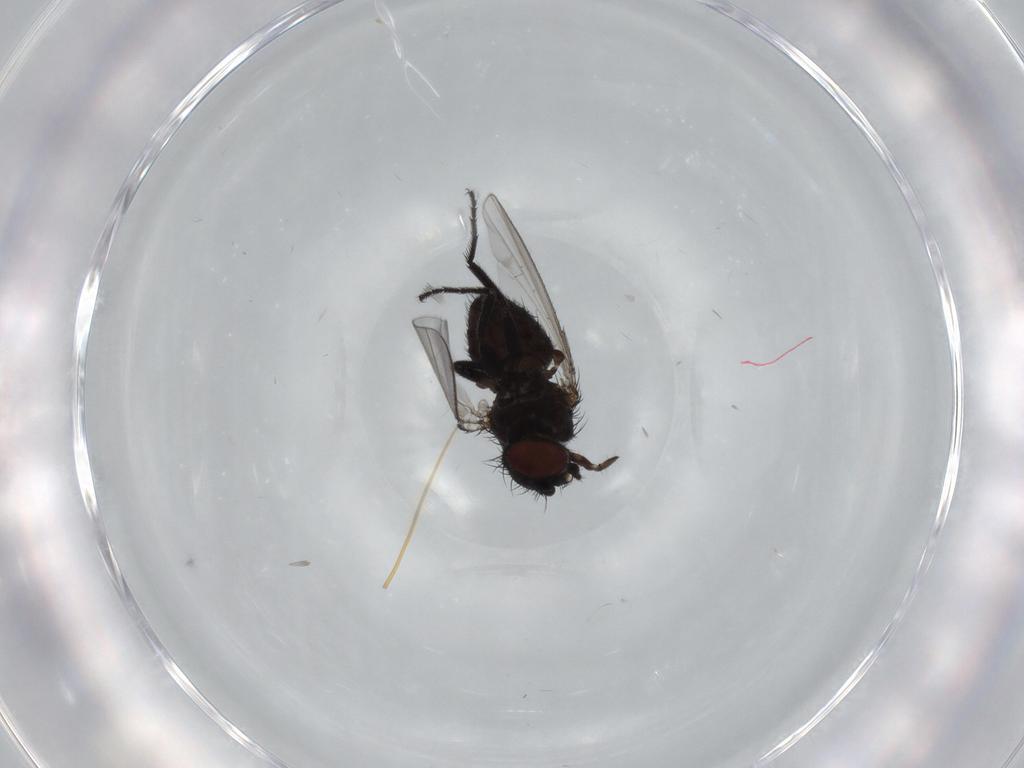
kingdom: Animalia
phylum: Arthropoda
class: Insecta
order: Diptera
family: Milichiidae
